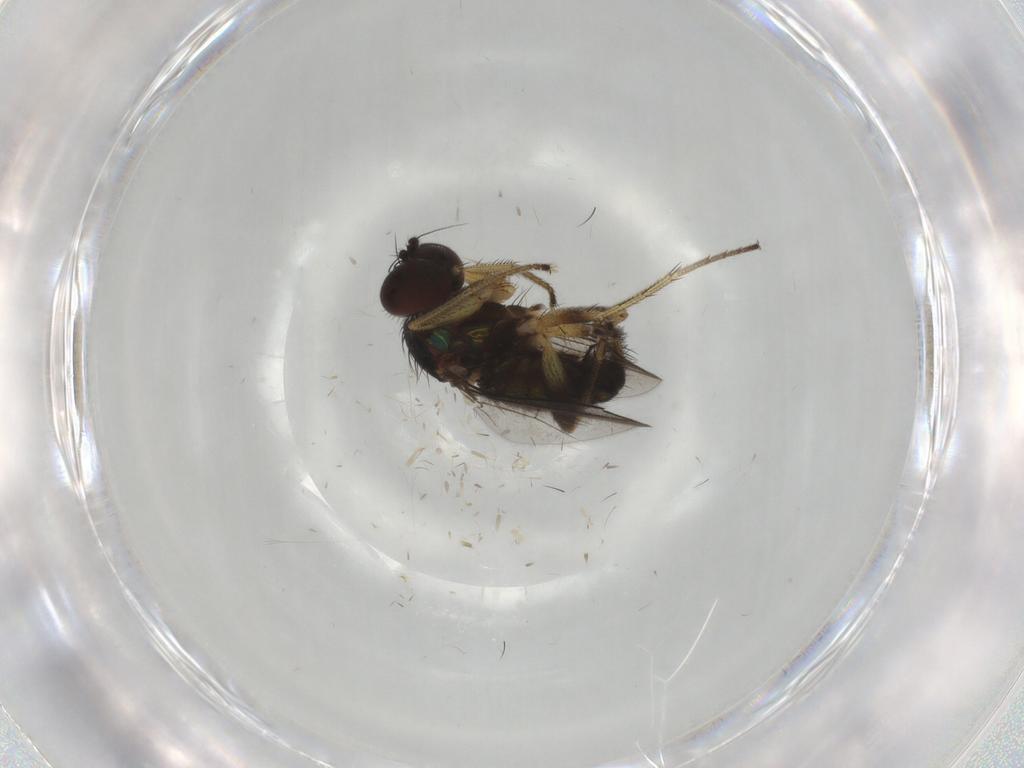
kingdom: Animalia
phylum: Arthropoda
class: Insecta
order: Diptera
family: Dolichopodidae
